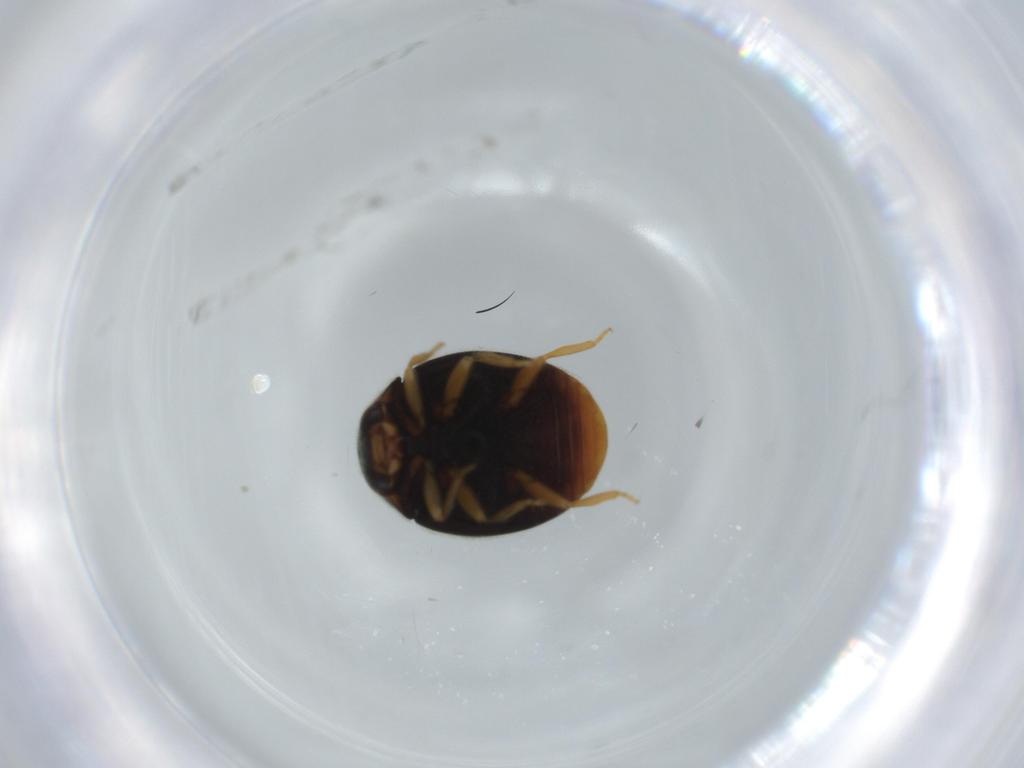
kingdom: Animalia
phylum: Arthropoda
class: Insecta
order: Coleoptera
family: Coccinellidae
